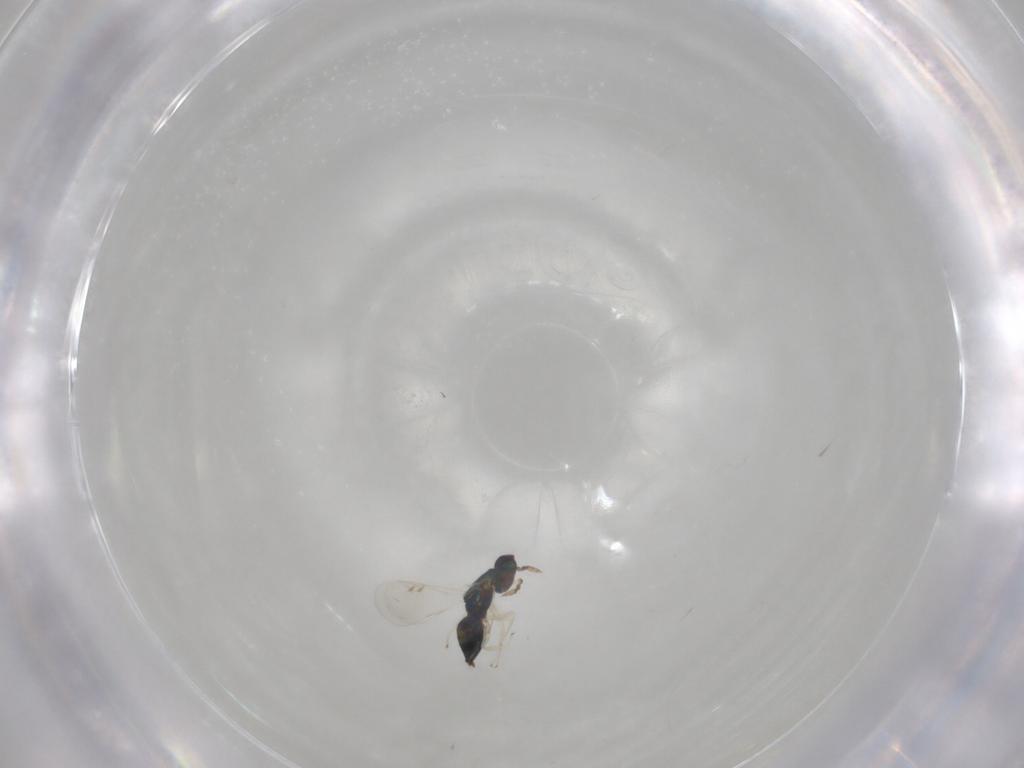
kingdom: Animalia
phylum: Arthropoda
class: Insecta
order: Hymenoptera
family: Eulophidae
